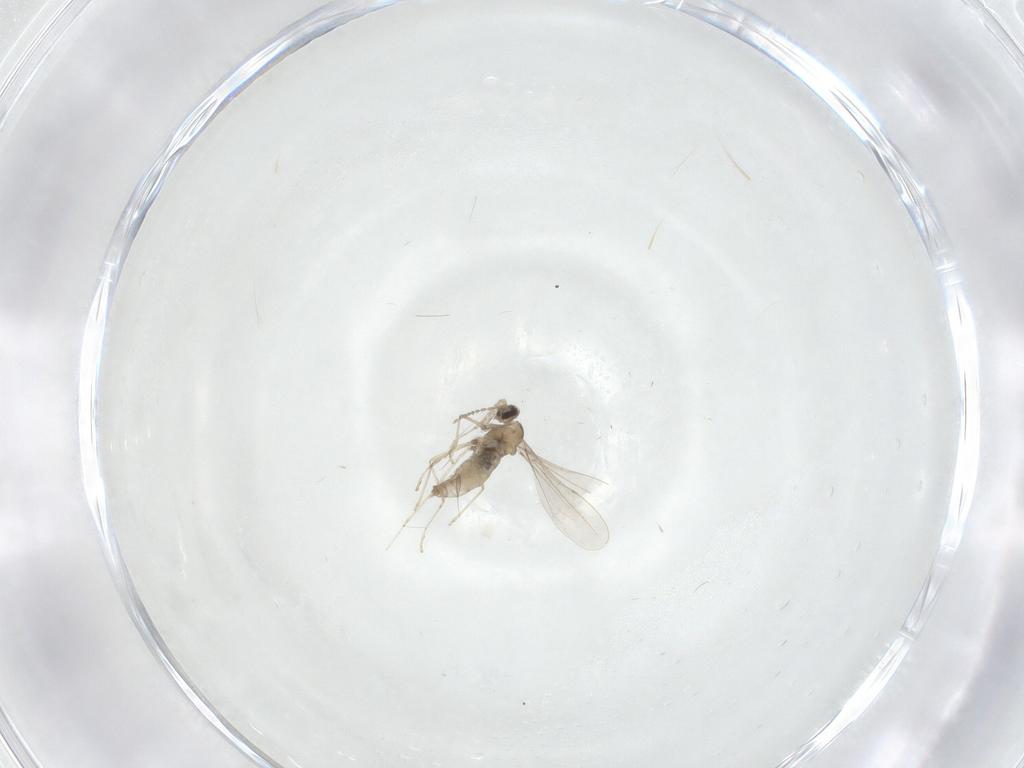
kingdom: Animalia
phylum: Arthropoda
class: Insecta
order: Diptera
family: Cecidomyiidae
